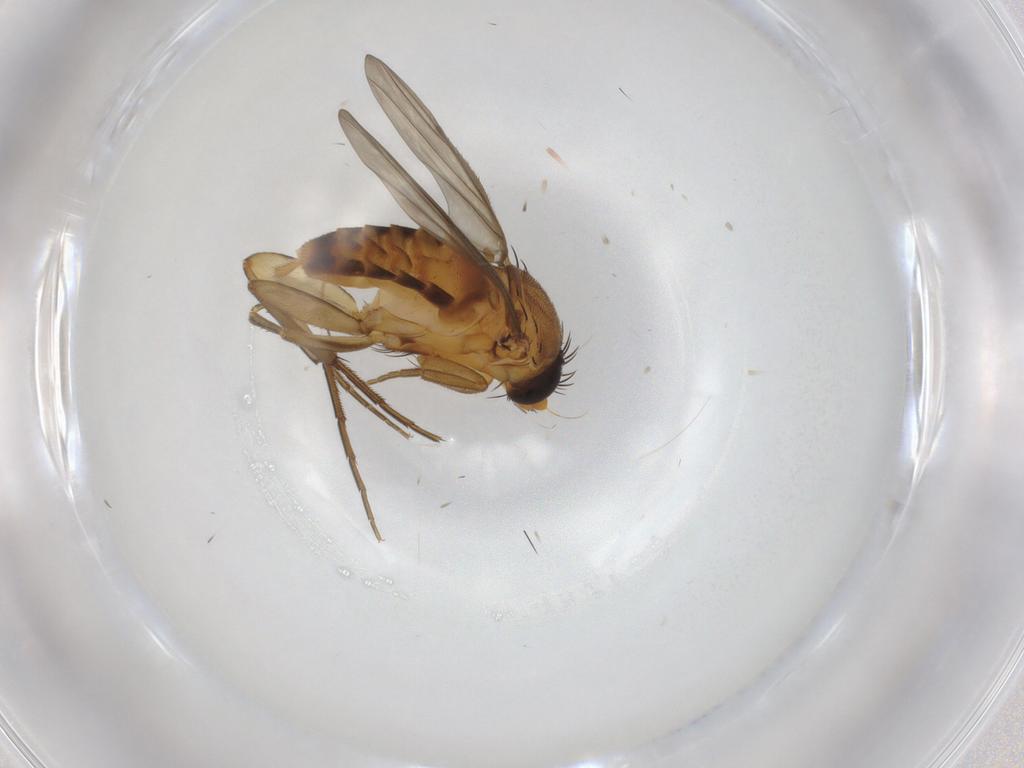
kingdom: Animalia
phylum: Arthropoda
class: Insecta
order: Diptera
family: Phoridae
